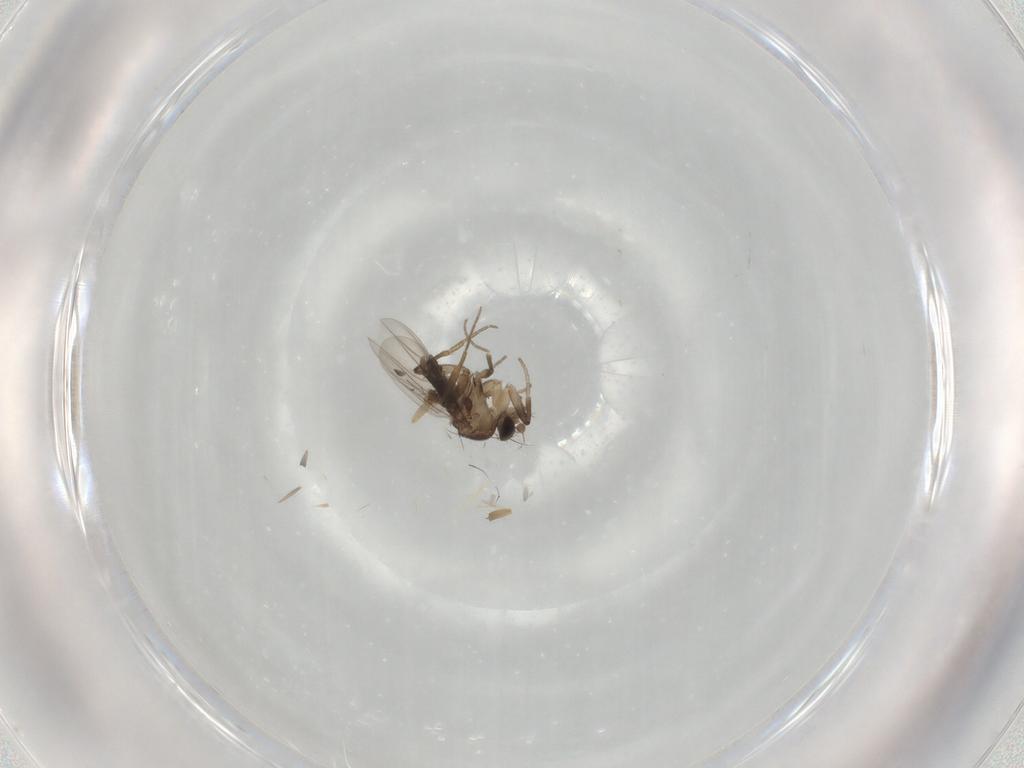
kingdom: Animalia
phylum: Arthropoda
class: Insecta
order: Diptera
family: Phoridae
